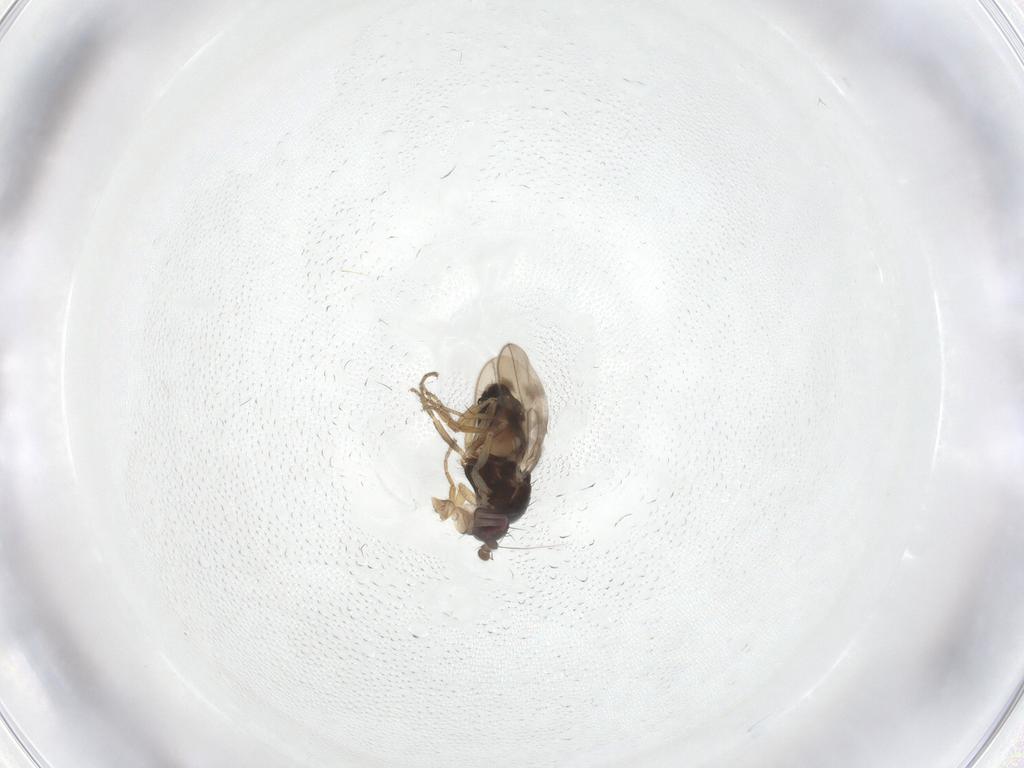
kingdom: Animalia
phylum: Arthropoda
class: Insecta
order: Diptera
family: Sphaeroceridae
